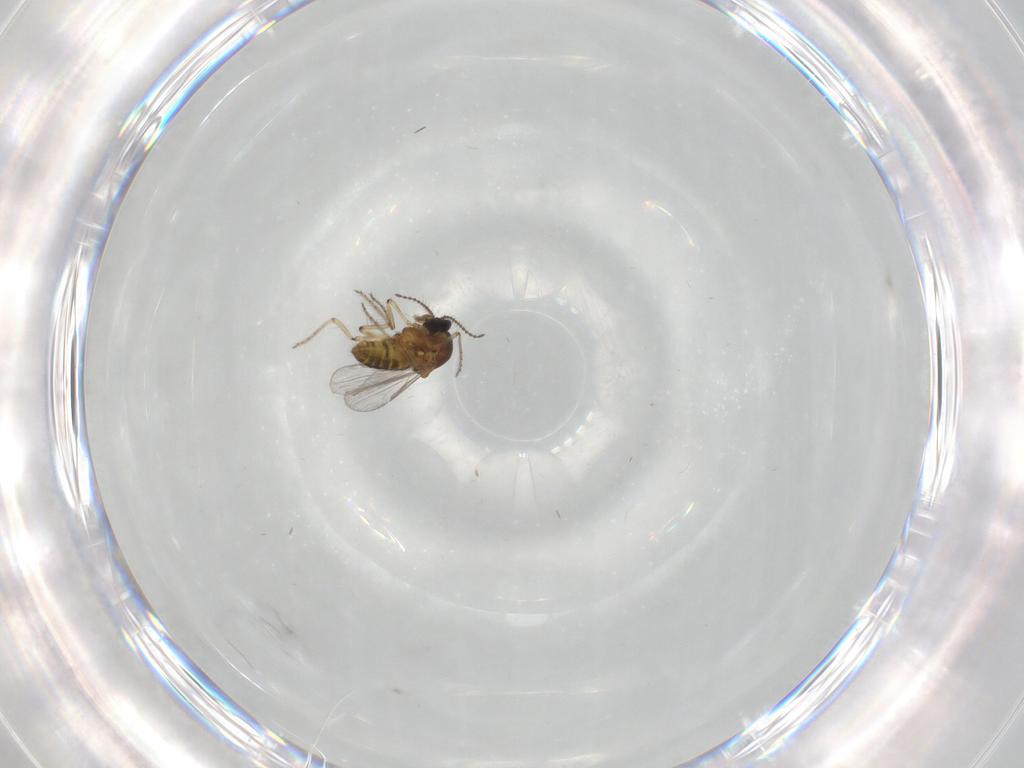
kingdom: Animalia
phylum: Arthropoda
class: Insecta
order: Diptera
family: Ceratopogonidae
